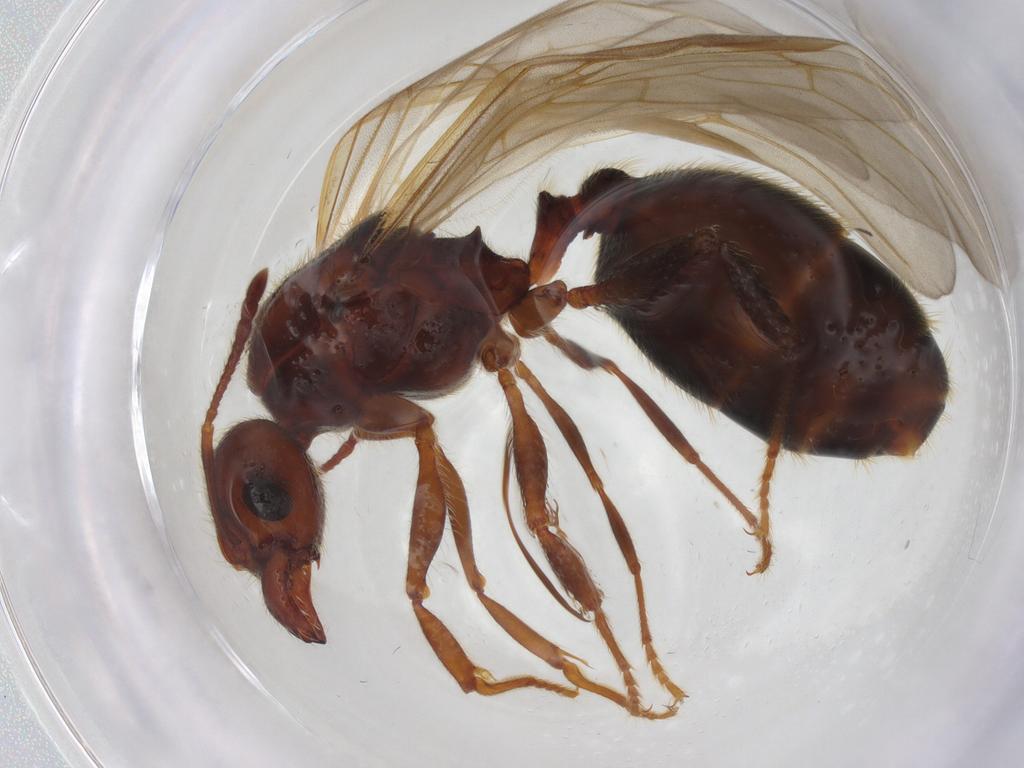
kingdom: Animalia
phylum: Arthropoda
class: Insecta
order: Hymenoptera
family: Formicidae
